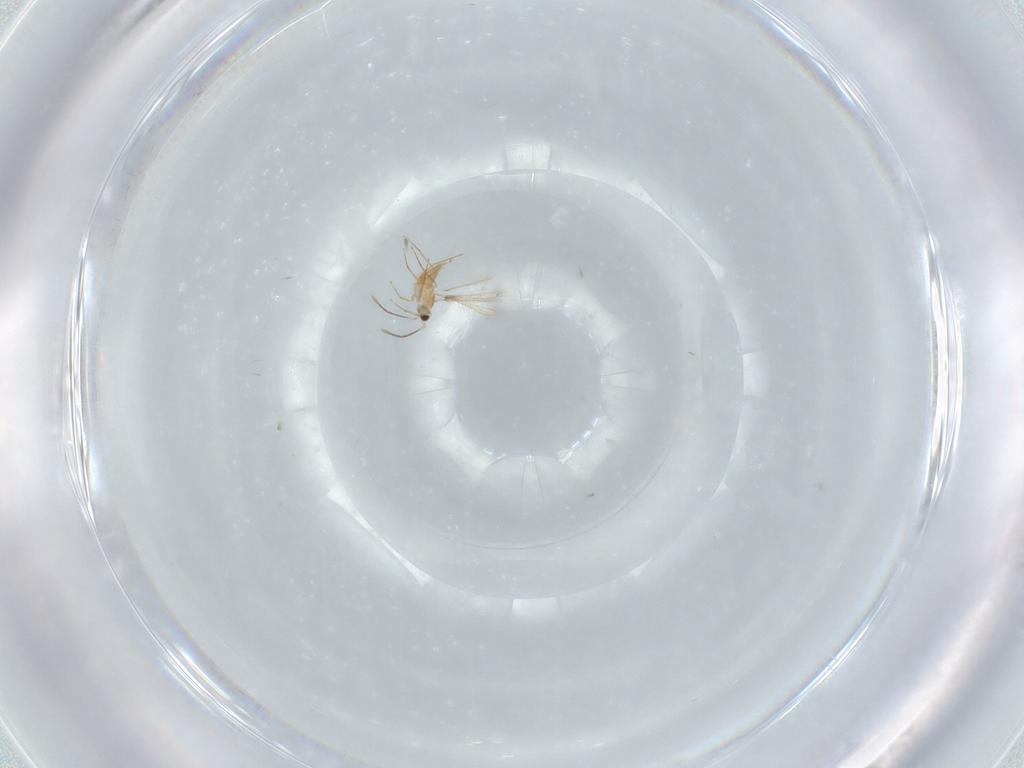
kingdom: Animalia
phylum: Arthropoda
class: Insecta
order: Hymenoptera
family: Mymaridae
